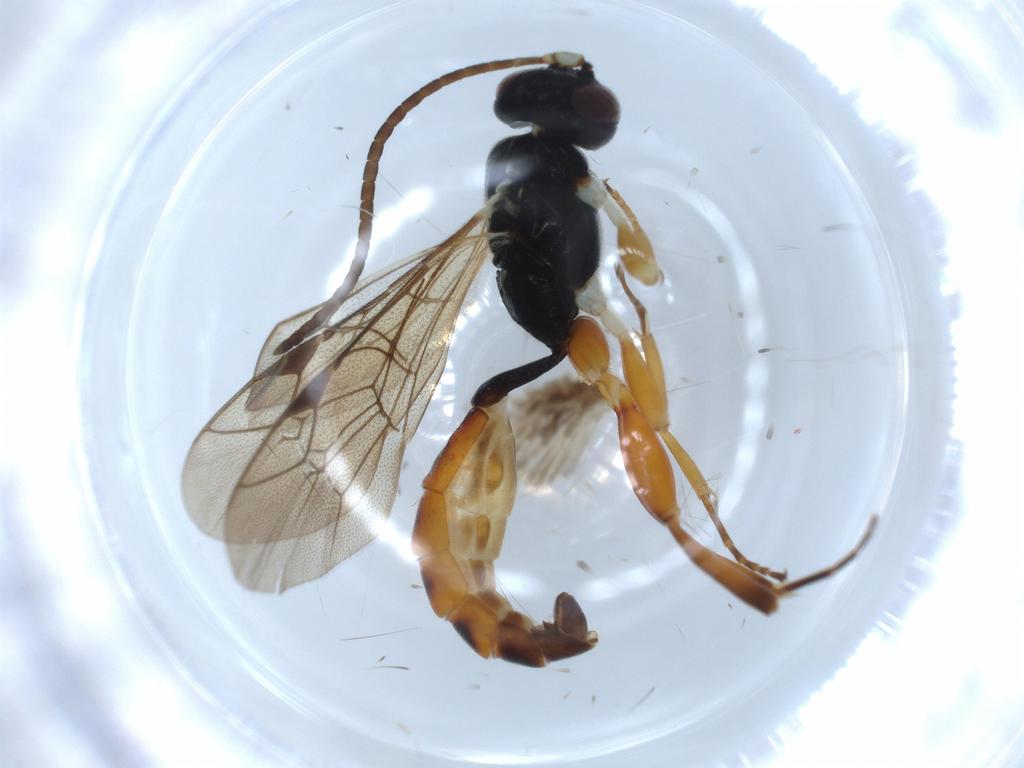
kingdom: Animalia
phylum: Arthropoda
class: Insecta
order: Hymenoptera
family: Ichneumonidae
